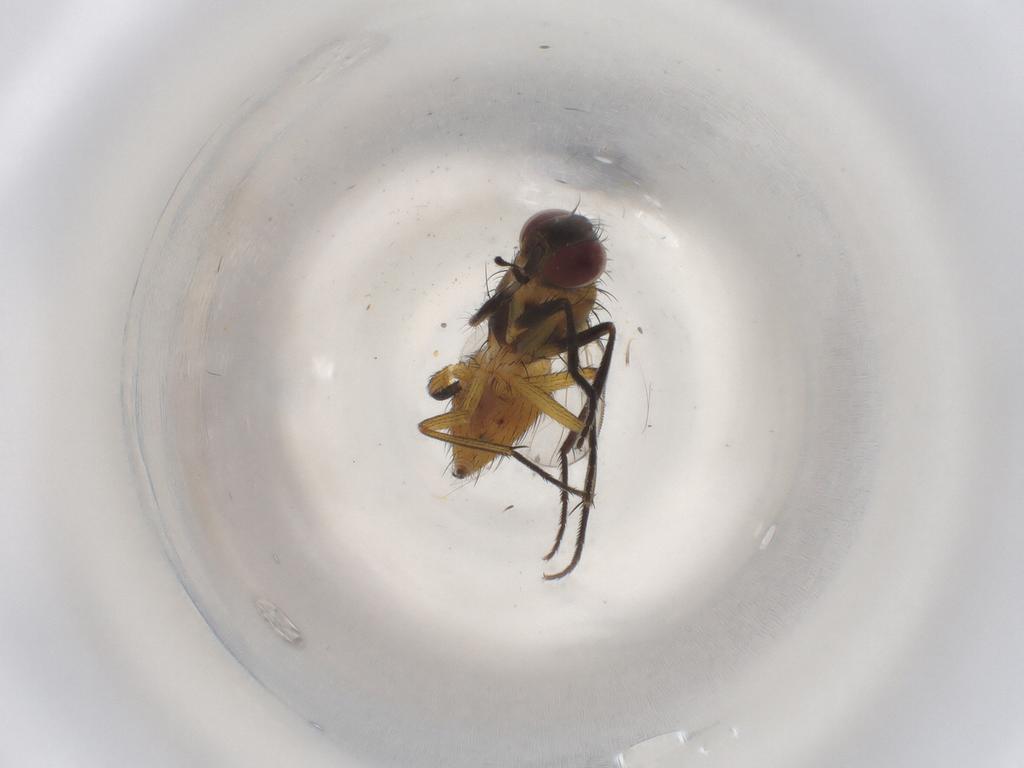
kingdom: Animalia
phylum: Arthropoda
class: Insecta
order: Diptera
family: Muscidae
